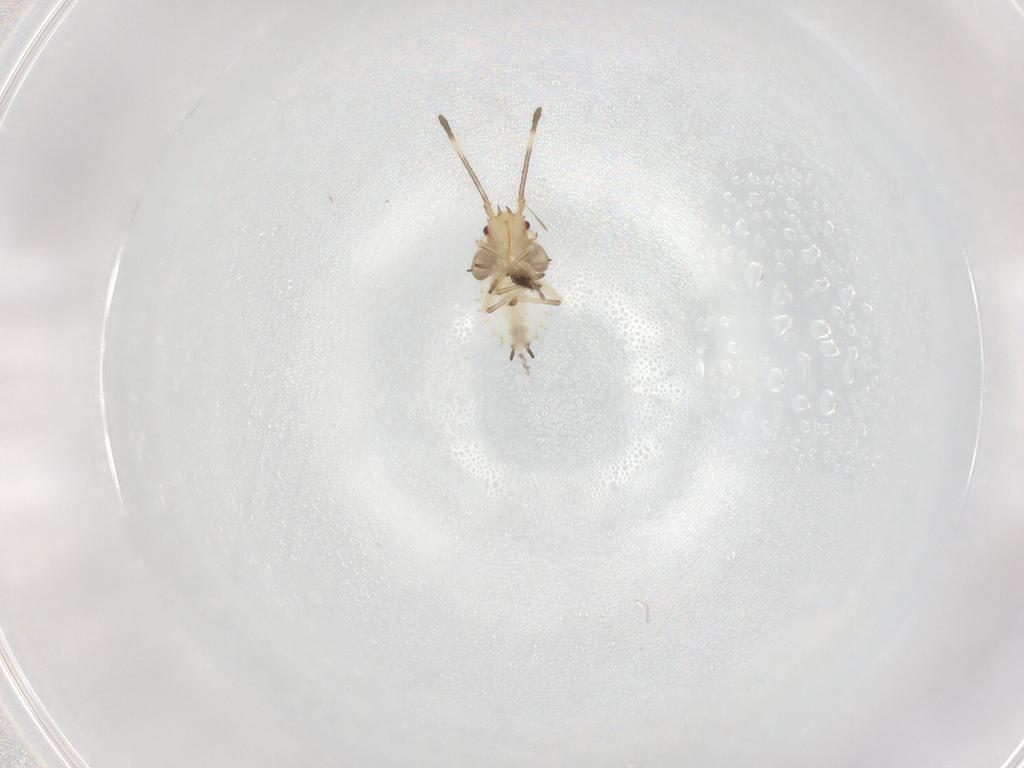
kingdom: Animalia
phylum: Arthropoda
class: Insecta
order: Hemiptera
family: Tingidae
